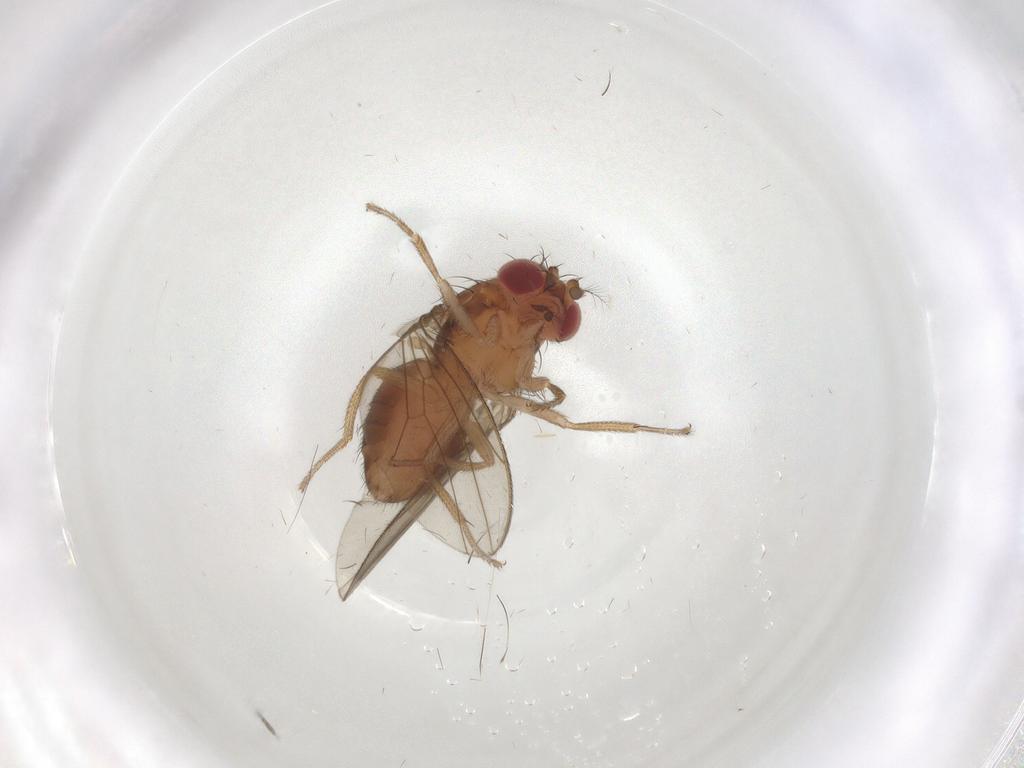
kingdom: Animalia
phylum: Arthropoda
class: Insecta
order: Diptera
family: Drosophilidae
